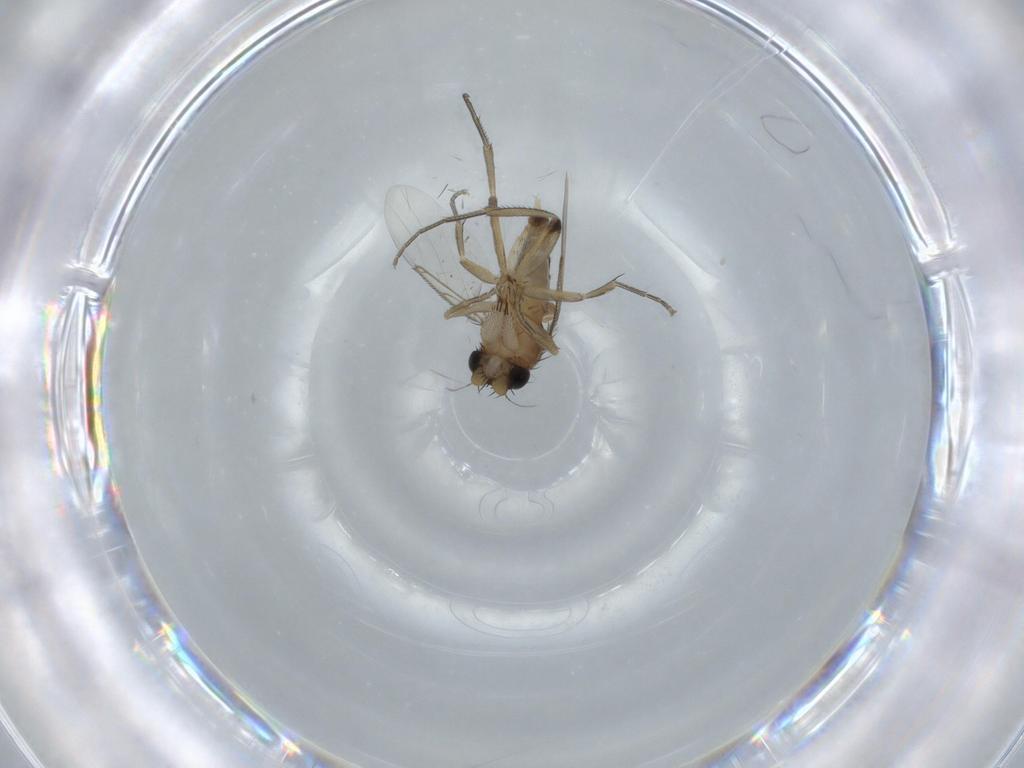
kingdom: Animalia
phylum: Arthropoda
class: Insecta
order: Diptera
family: Phoridae
